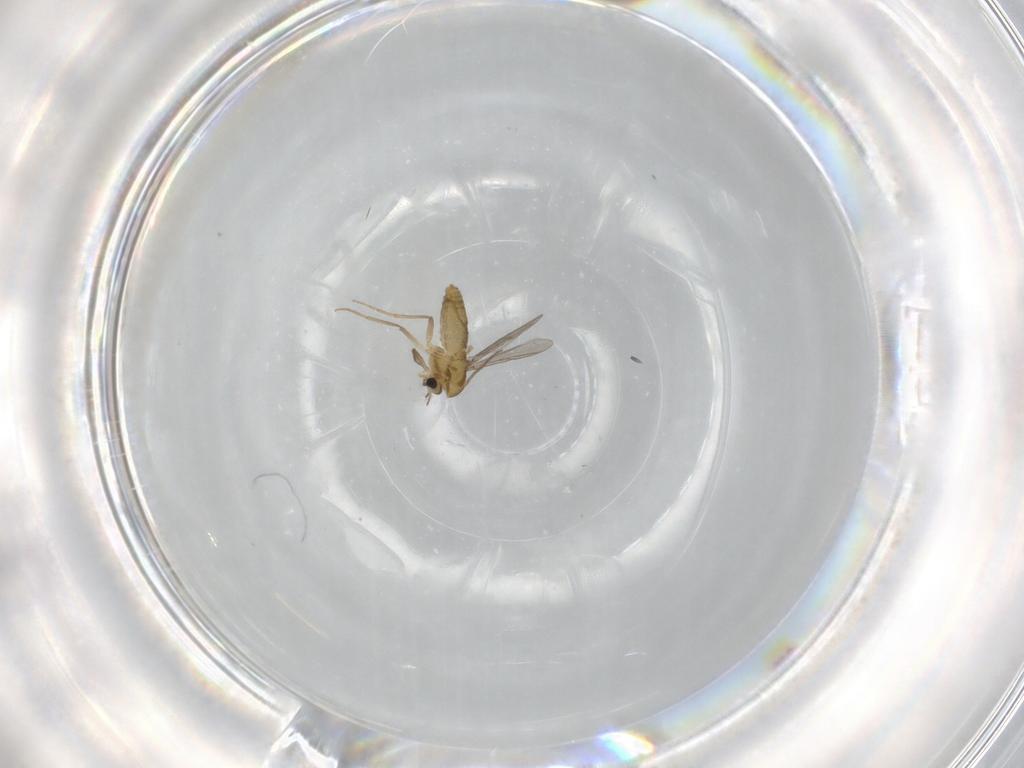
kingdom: Animalia
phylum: Arthropoda
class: Insecta
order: Diptera
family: Chironomidae
